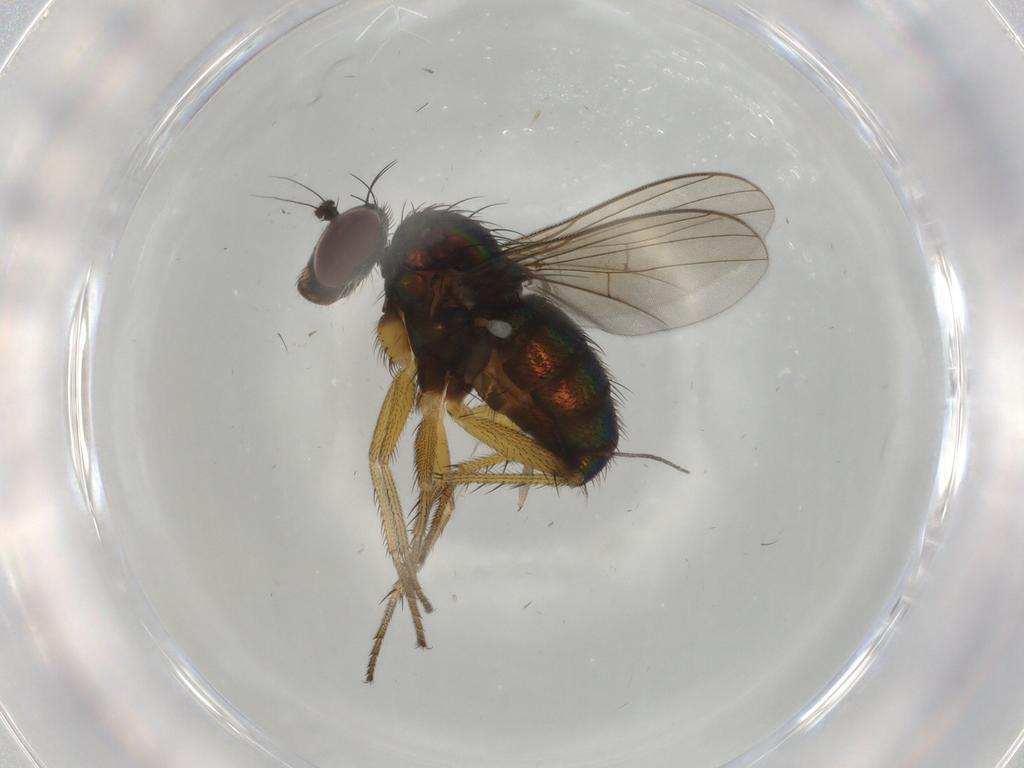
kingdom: Animalia
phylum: Arthropoda
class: Insecta
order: Diptera
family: Dolichopodidae
